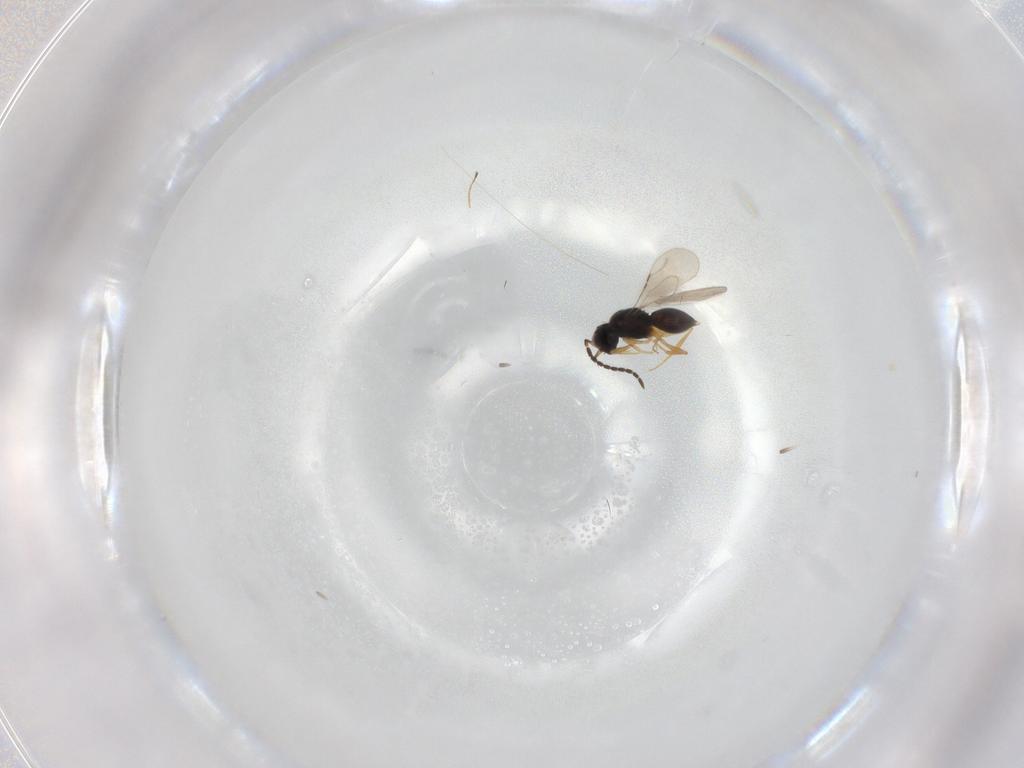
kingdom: Animalia
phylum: Arthropoda
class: Insecta
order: Hymenoptera
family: Ceraphronidae
